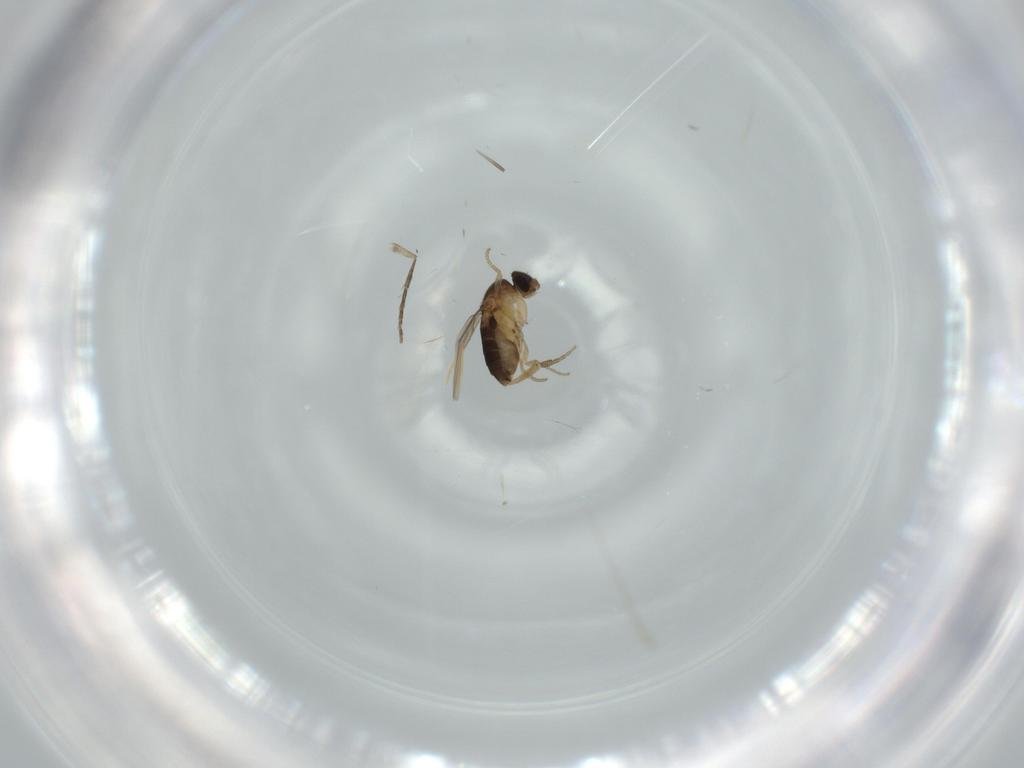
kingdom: Animalia
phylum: Arthropoda
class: Insecta
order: Diptera
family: Phoridae
